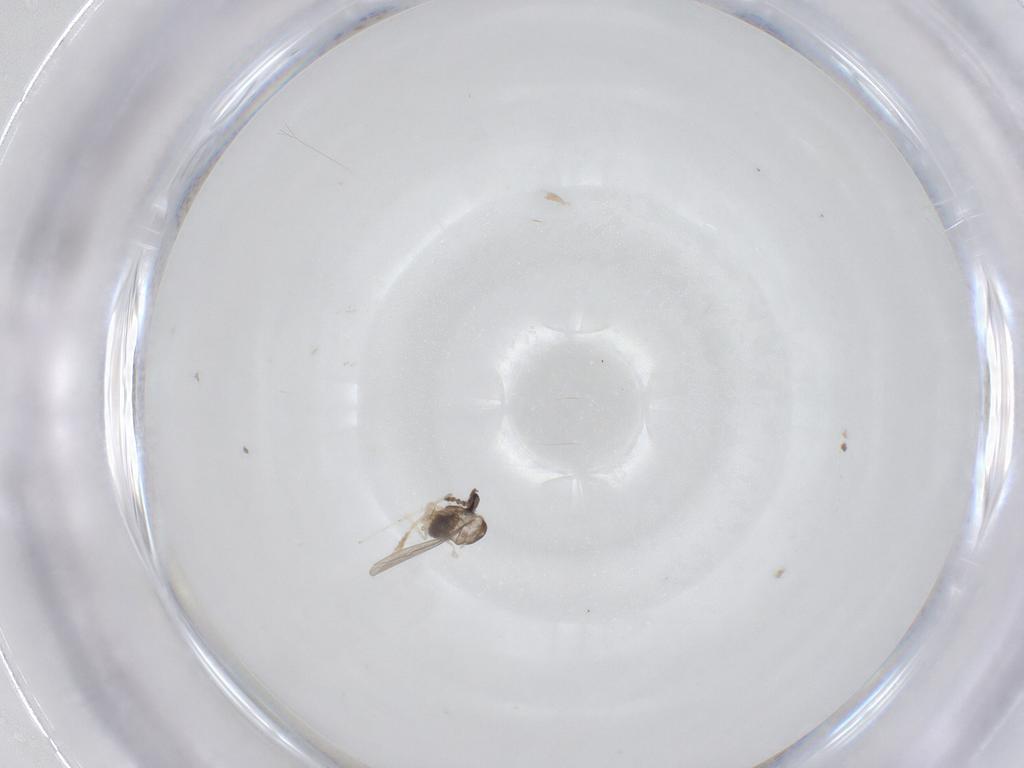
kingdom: Animalia
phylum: Arthropoda
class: Insecta
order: Diptera
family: Cecidomyiidae
